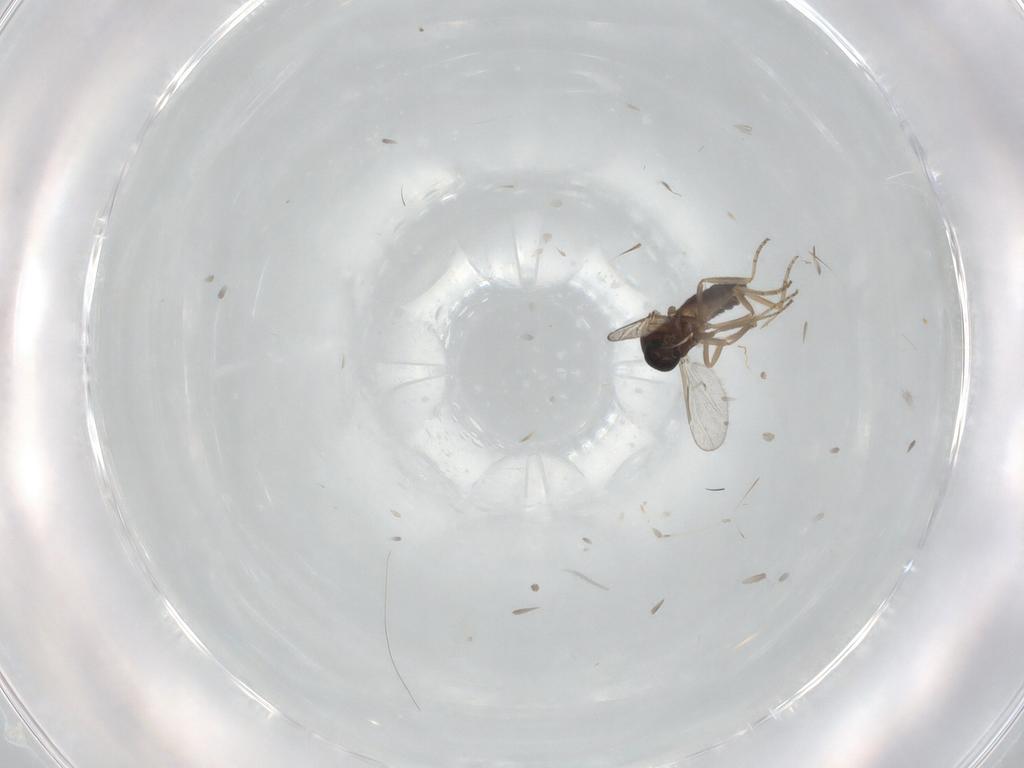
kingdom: Animalia
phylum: Arthropoda
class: Insecta
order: Diptera
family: Ceratopogonidae
